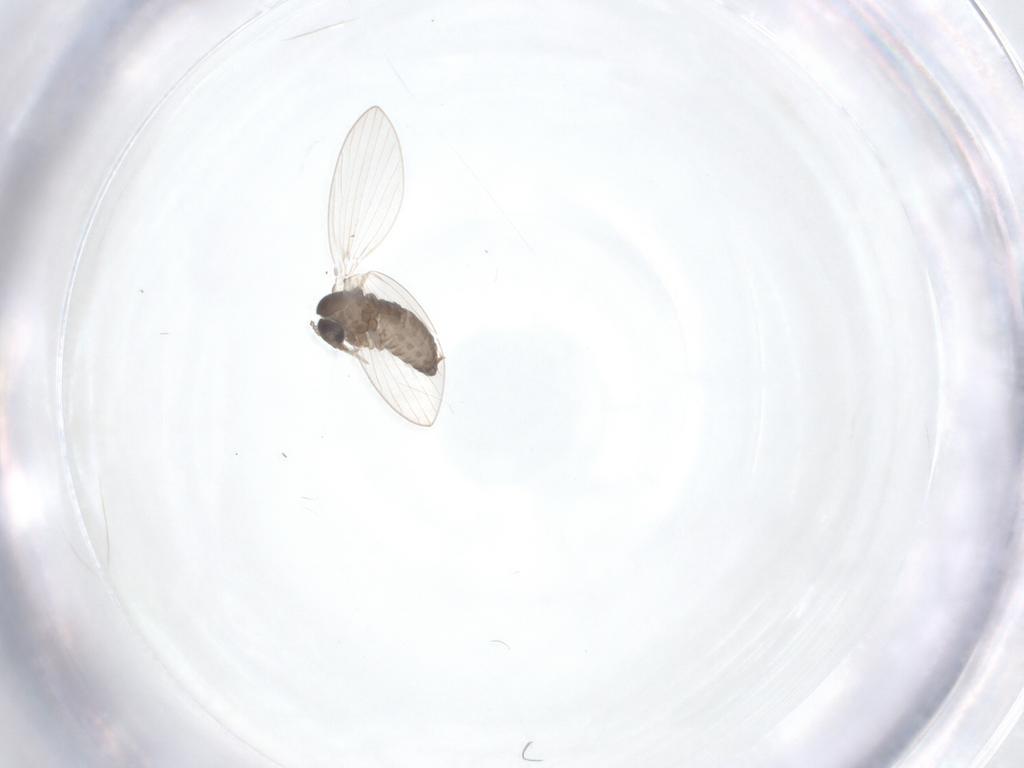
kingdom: Animalia
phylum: Arthropoda
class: Insecta
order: Diptera
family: Psychodidae
